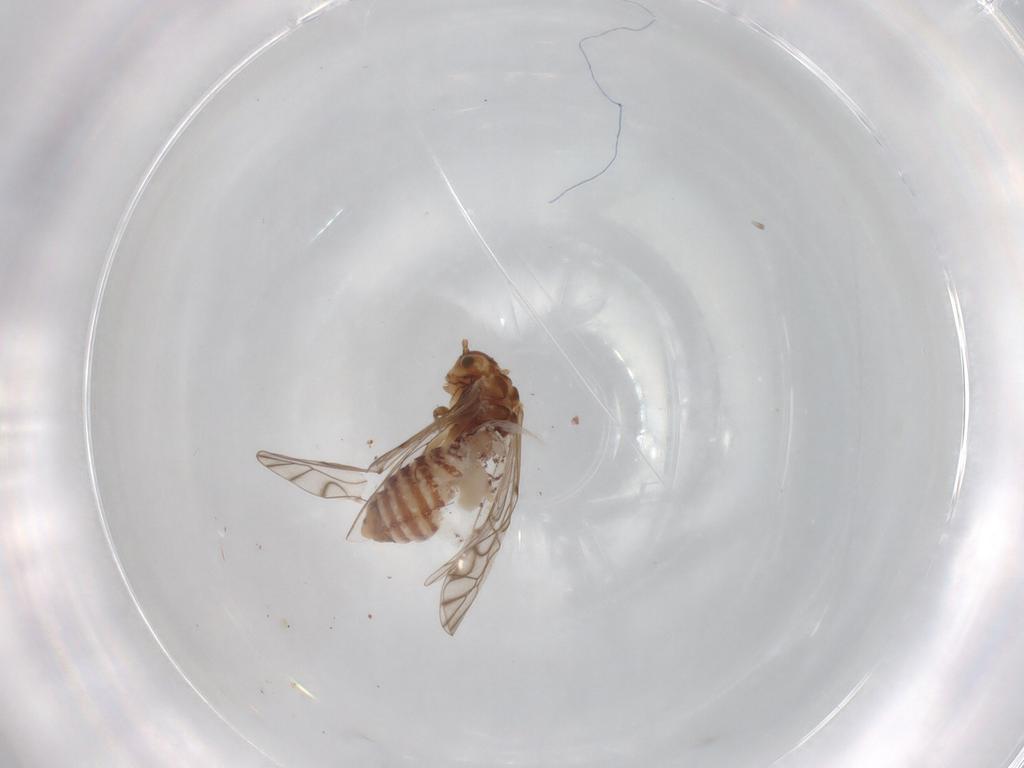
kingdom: Animalia
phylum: Arthropoda
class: Insecta
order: Psocodea
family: Lachesillidae
